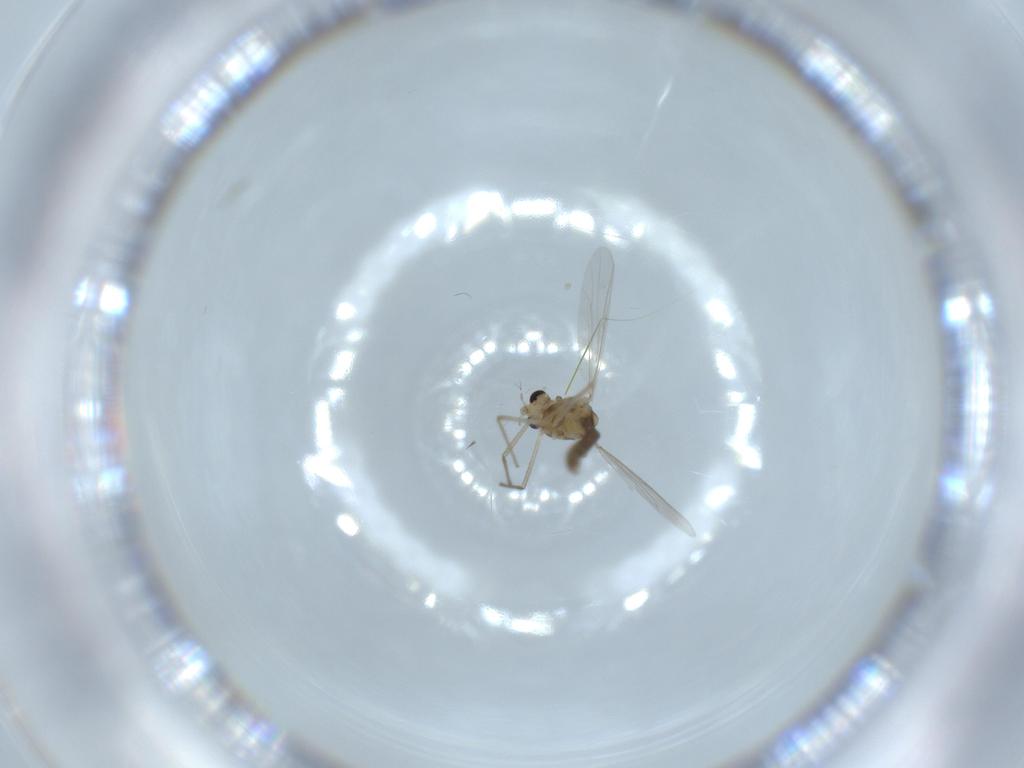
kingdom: Animalia
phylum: Arthropoda
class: Insecta
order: Diptera
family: Chironomidae
